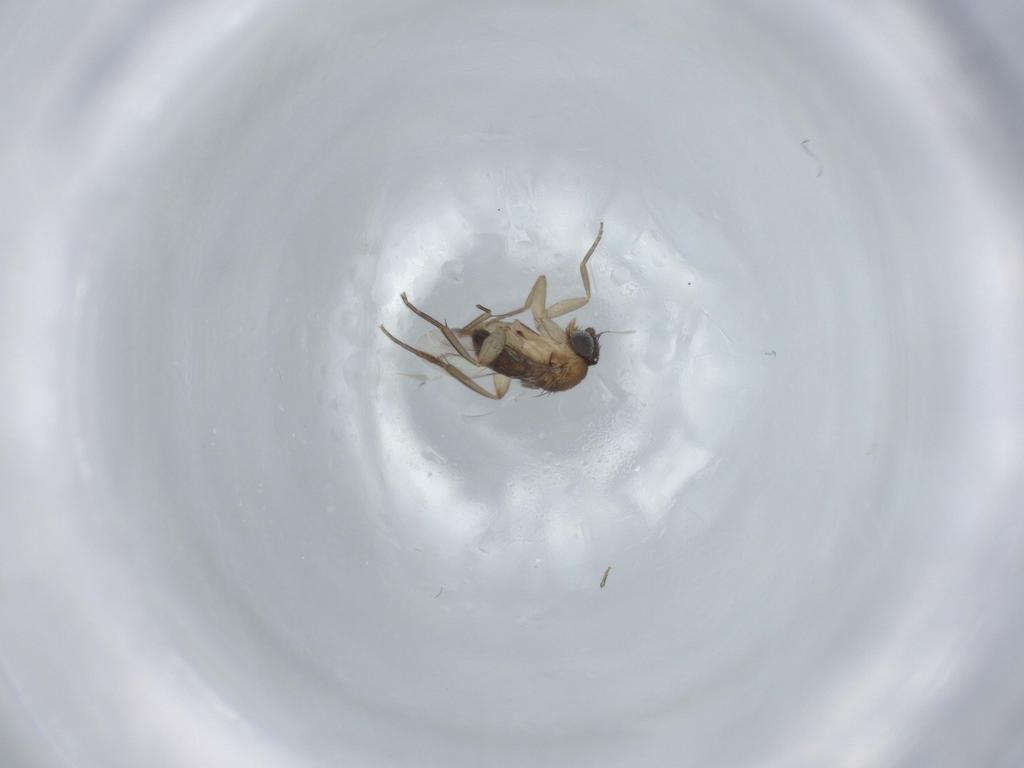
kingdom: Animalia
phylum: Arthropoda
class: Insecta
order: Diptera
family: Phoridae
